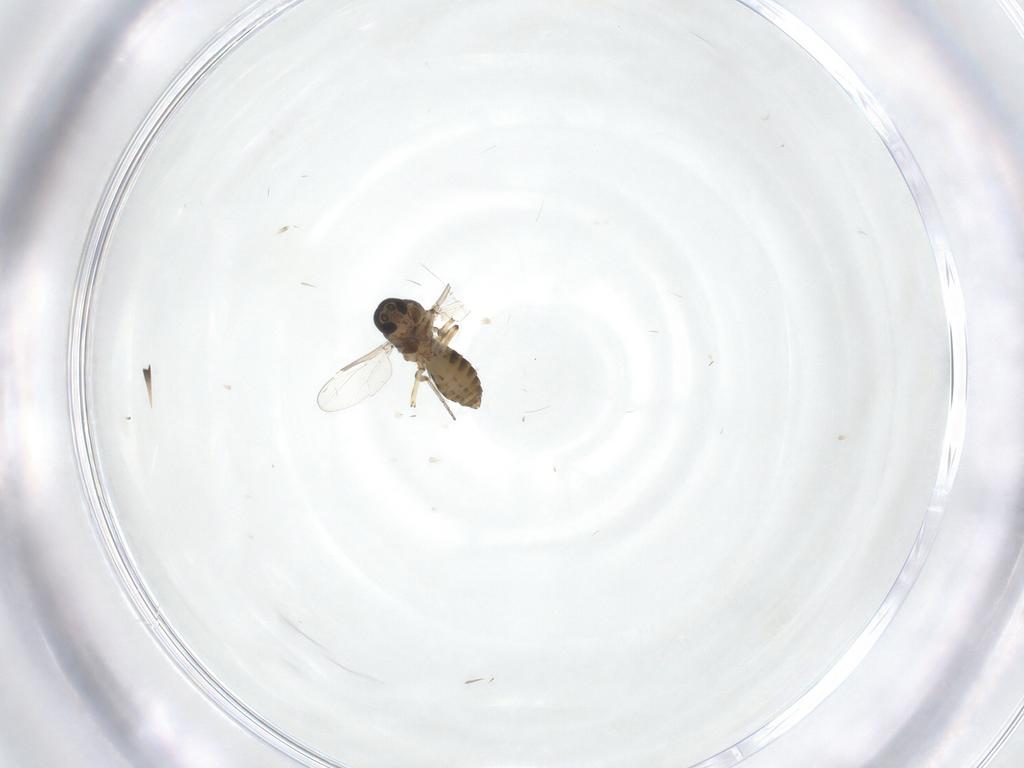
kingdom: Animalia
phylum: Arthropoda
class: Insecta
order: Diptera
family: Ceratopogonidae
